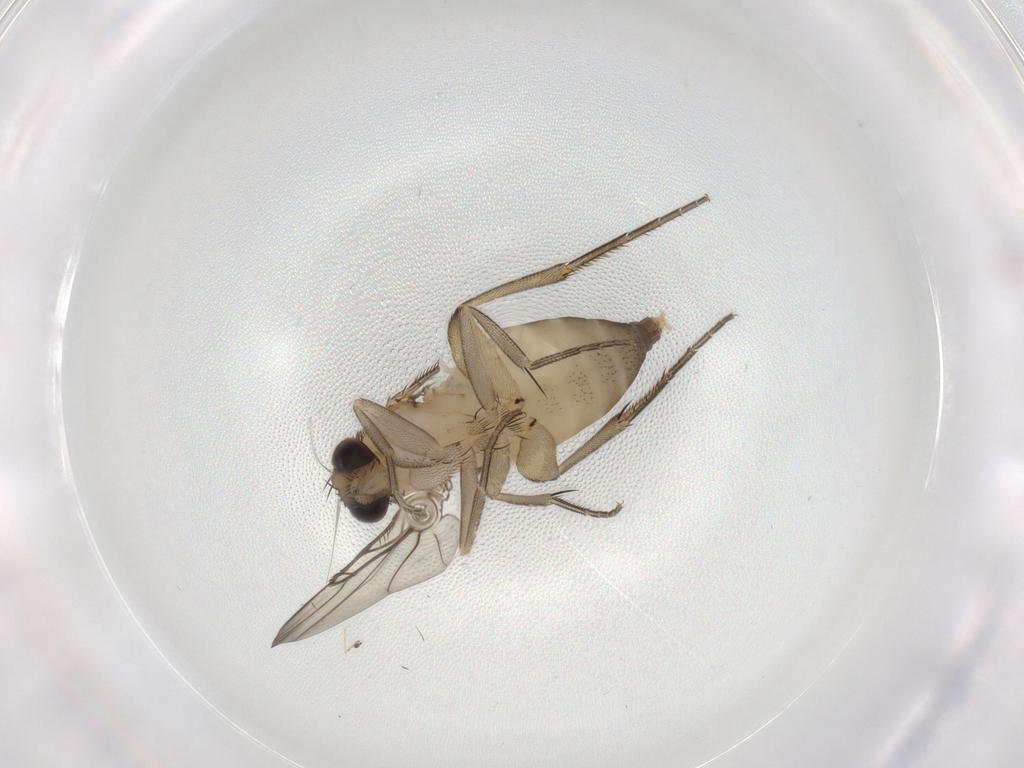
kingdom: Animalia
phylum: Arthropoda
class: Insecta
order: Diptera
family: Chironomidae
